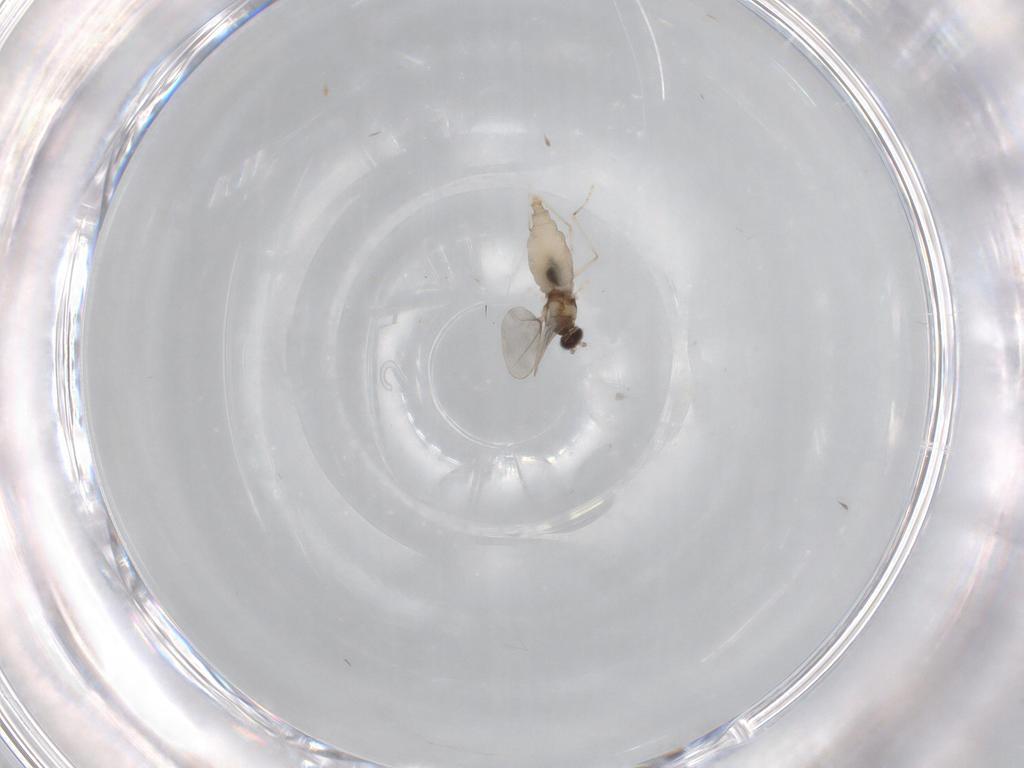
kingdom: Animalia
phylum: Arthropoda
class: Insecta
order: Diptera
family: Cecidomyiidae
